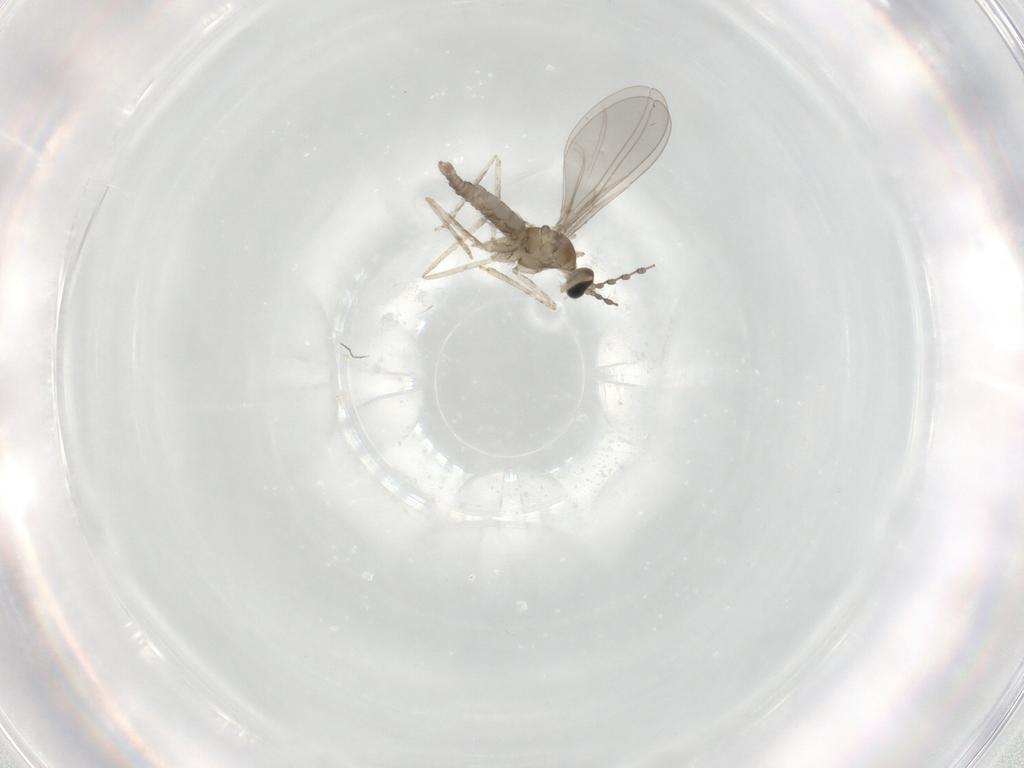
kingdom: Animalia
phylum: Arthropoda
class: Insecta
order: Diptera
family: Cecidomyiidae
